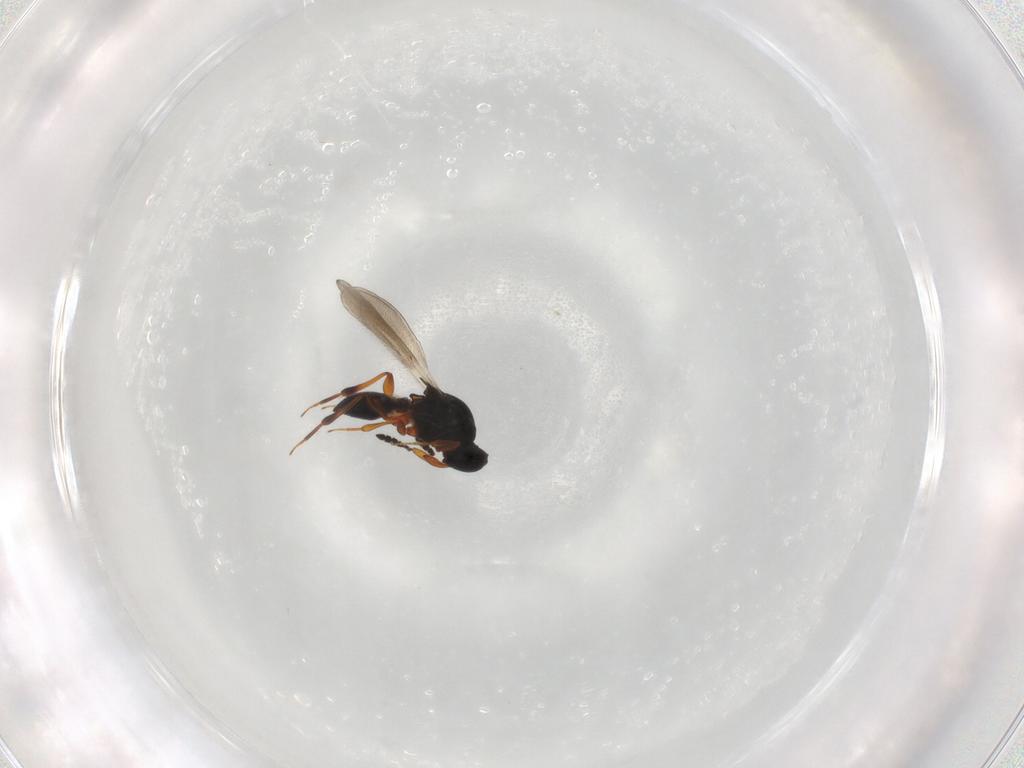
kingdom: Animalia
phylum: Arthropoda
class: Insecta
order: Hymenoptera
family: Platygastridae
